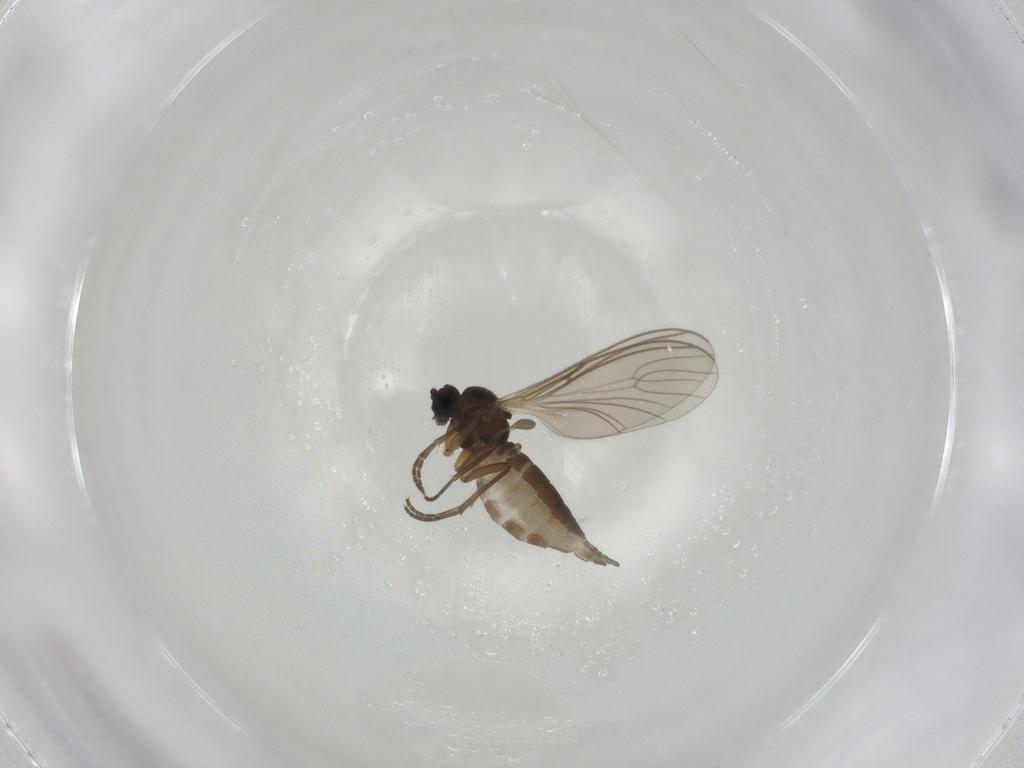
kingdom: Animalia
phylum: Arthropoda
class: Insecta
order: Diptera
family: Sciaridae
